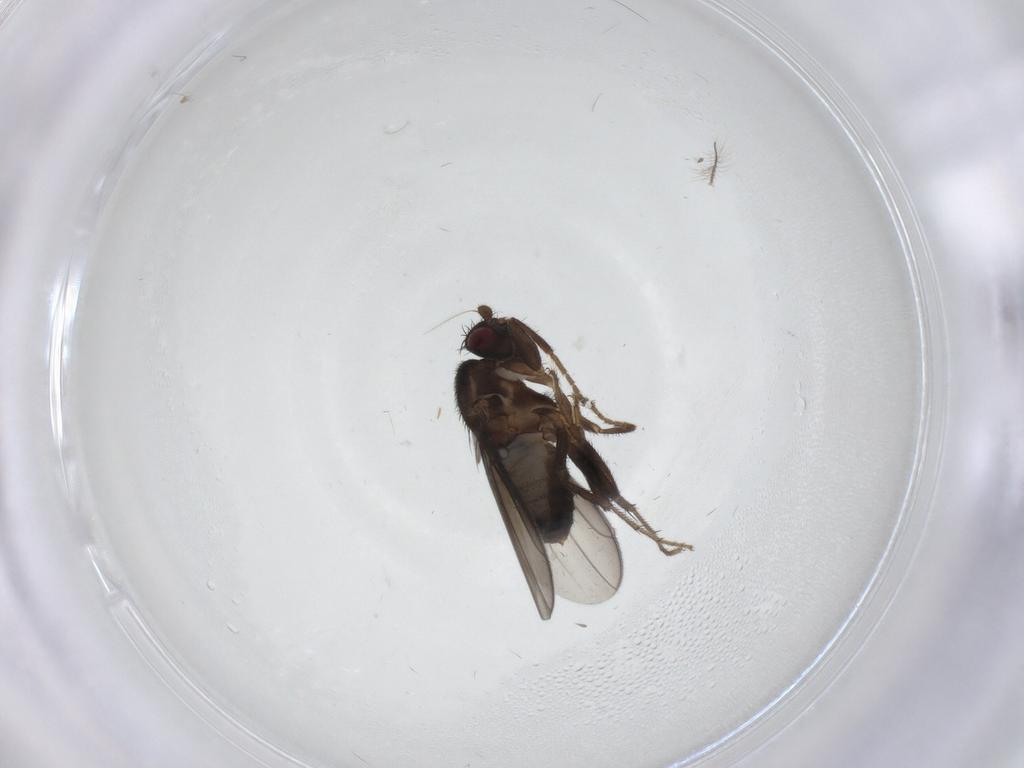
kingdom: Animalia
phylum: Arthropoda
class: Insecta
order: Diptera
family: Sphaeroceridae
